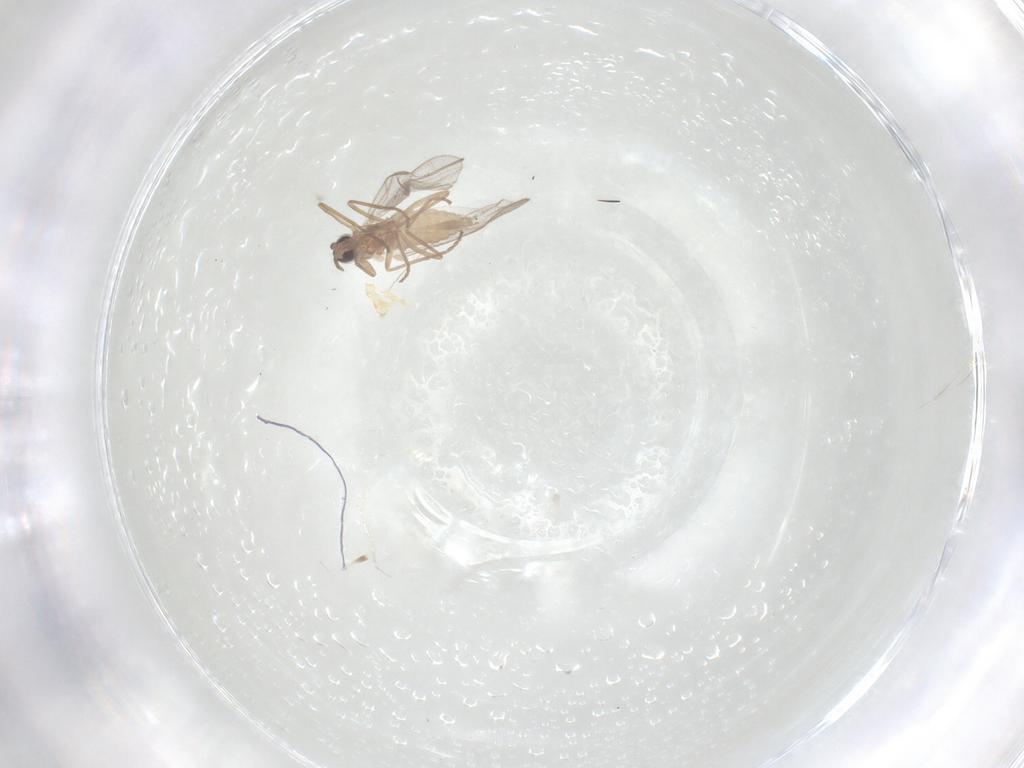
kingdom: Animalia
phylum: Arthropoda
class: Insecta
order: Diptera
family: Cecidomyiidae
